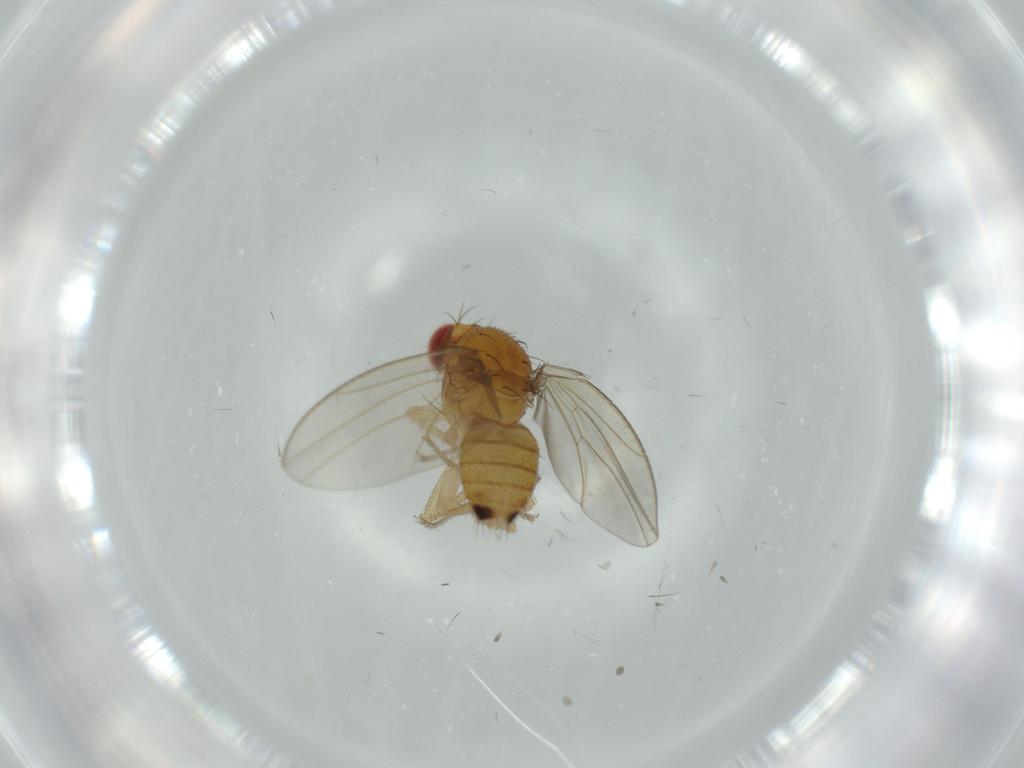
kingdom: Animalia
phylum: Arthropoda
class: Insecta
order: Diptera
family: Drosophilidae
